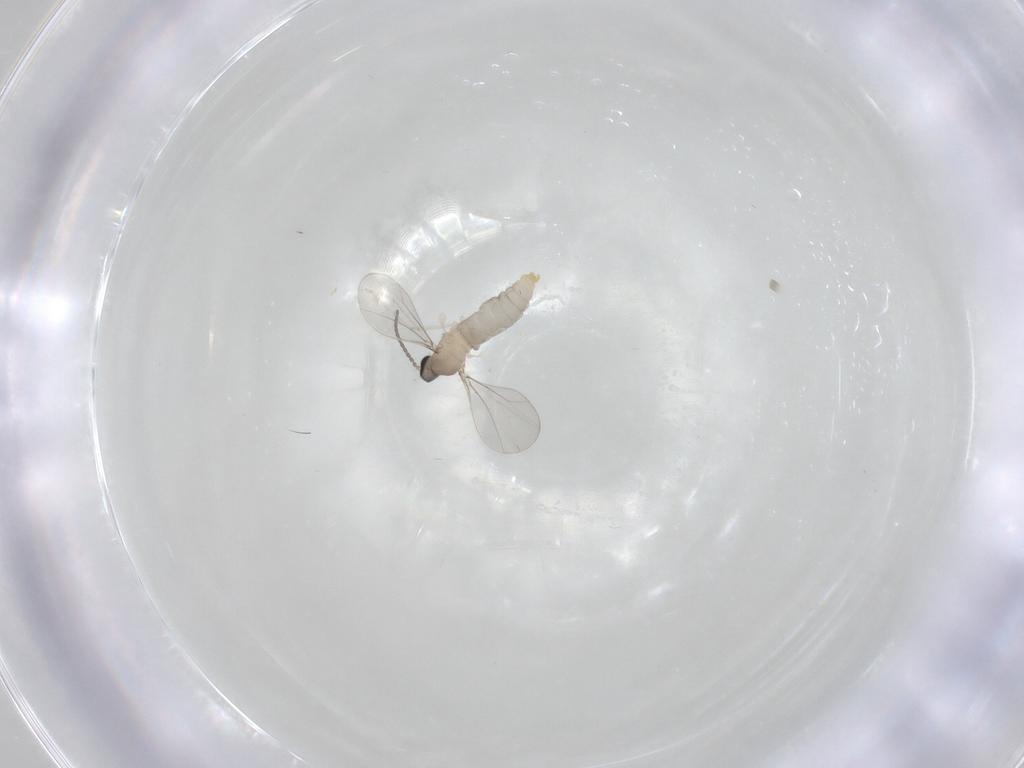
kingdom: Animalia
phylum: Arthropoda
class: Insecta
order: Diptera
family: Cecidomyiidae
